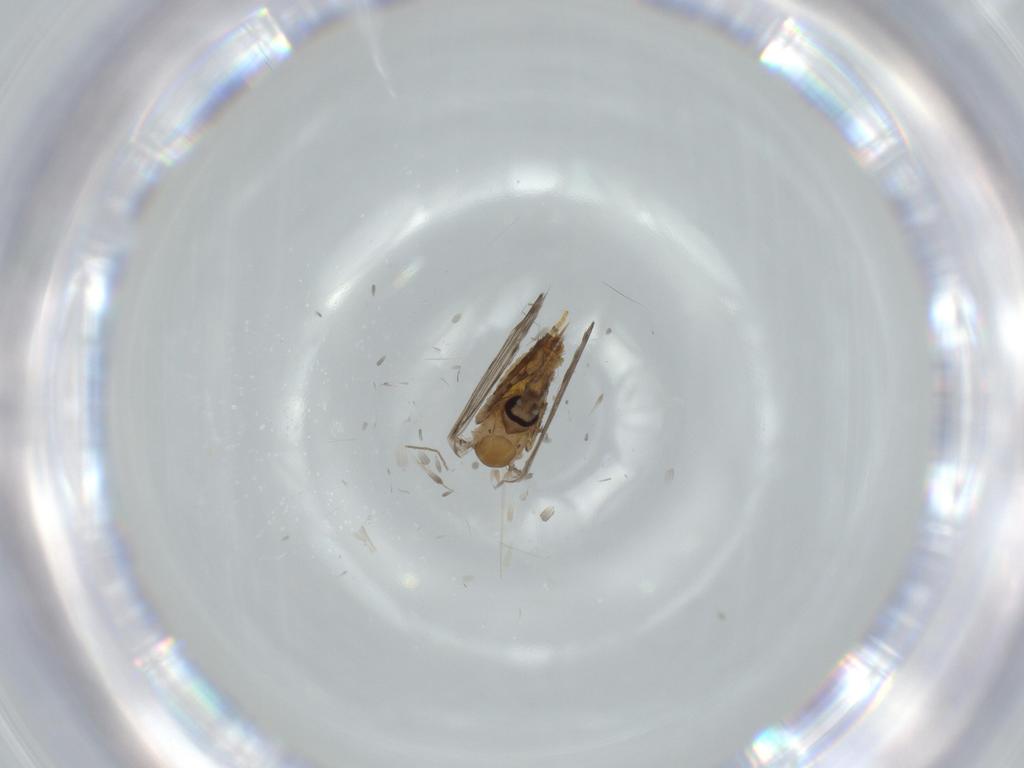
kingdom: Animalia
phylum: Arthropoda
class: Insecta
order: Diptera
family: Psychodidae
